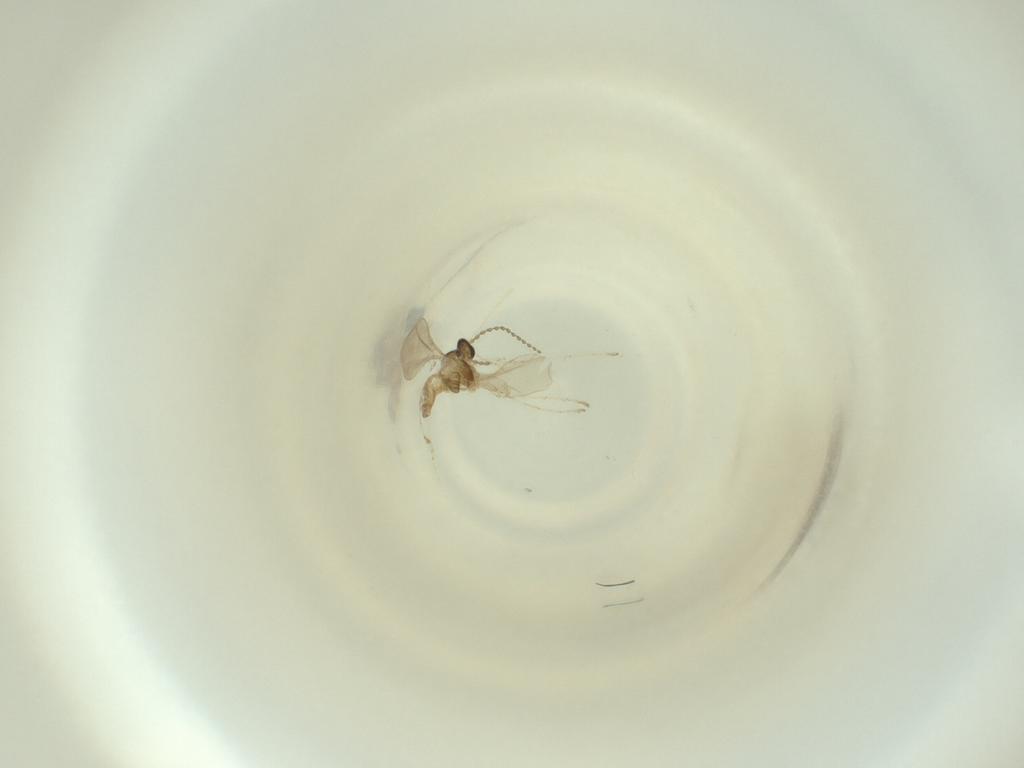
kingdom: Animalia
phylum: Arthropoda
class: Insecta
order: Diptera
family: Cecidomyiidae
